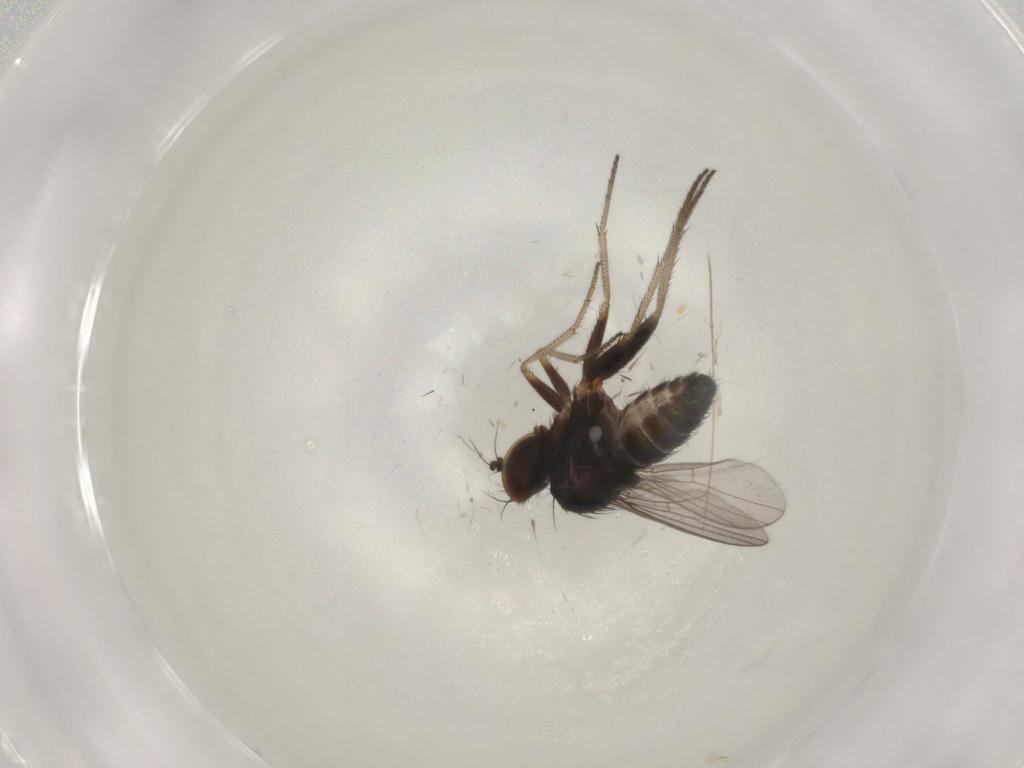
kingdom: Animalia
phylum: Arthropoda
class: Insecta
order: Diptera
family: Dolichopodidae
